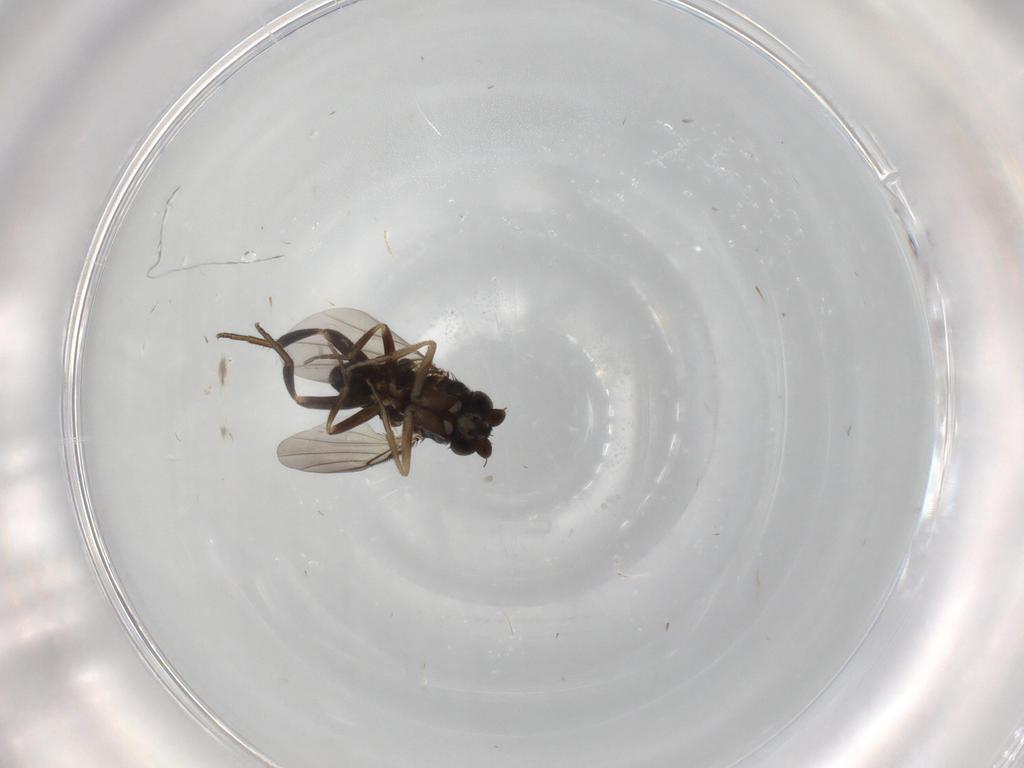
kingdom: Animalia
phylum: Arthropoda
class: Insecta
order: Diptera
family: Phoridae
